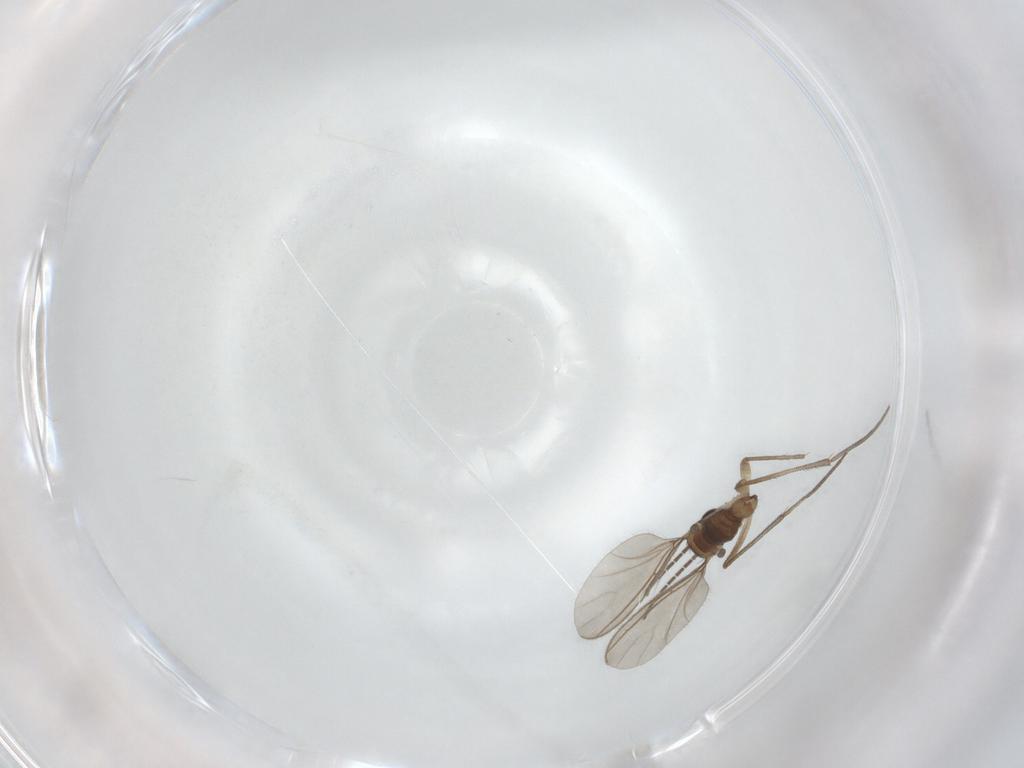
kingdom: Animalia
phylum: Arthropoda
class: Insecta
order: Diptera
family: Sciaridae
